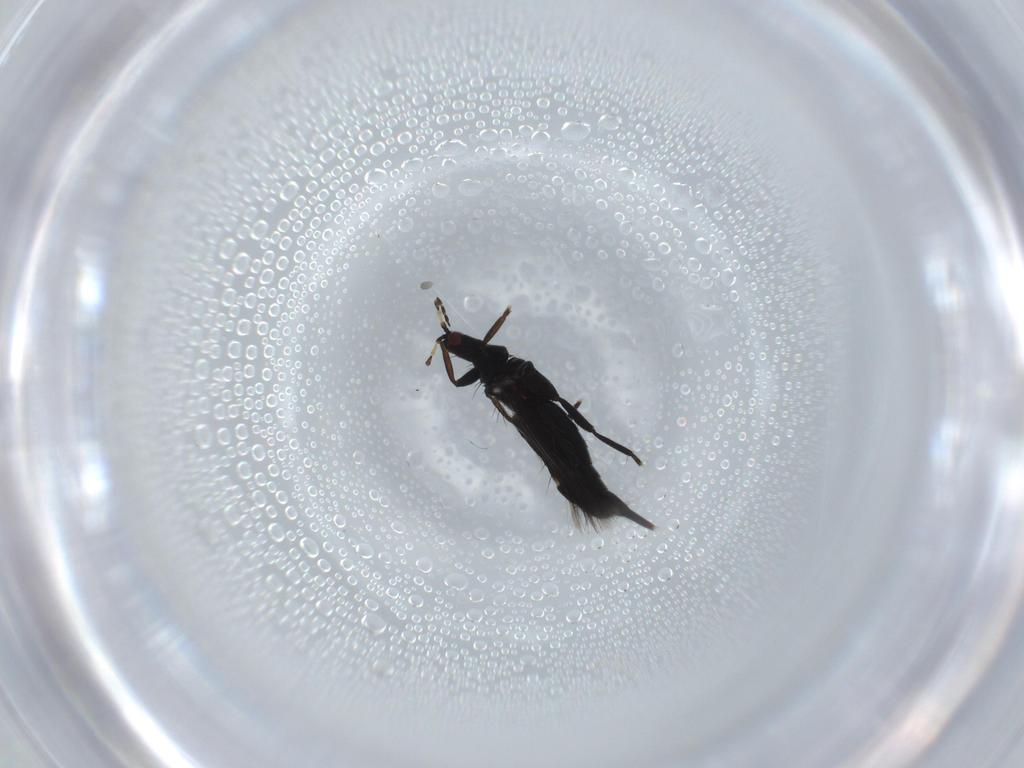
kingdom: Animalia
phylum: Arthropoda
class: Insecta
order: Thysanoptera
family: Phlaeothripidae
